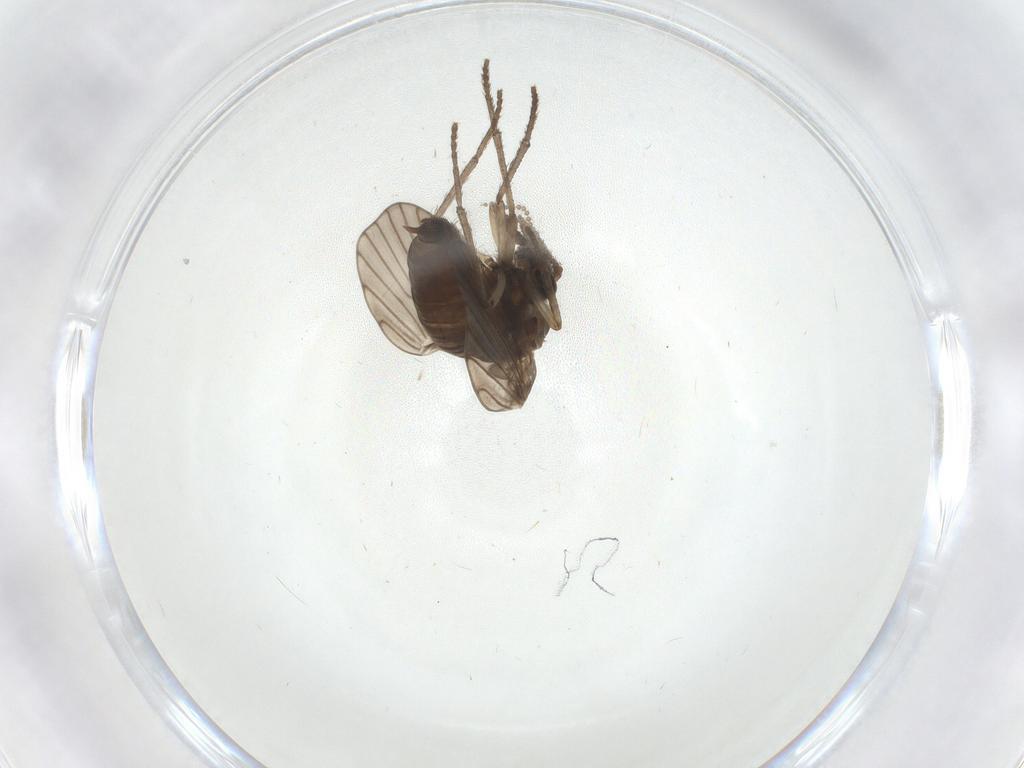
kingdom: Animalia
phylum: Arthropoda
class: Insecta
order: Diptera
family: Psychodidae
